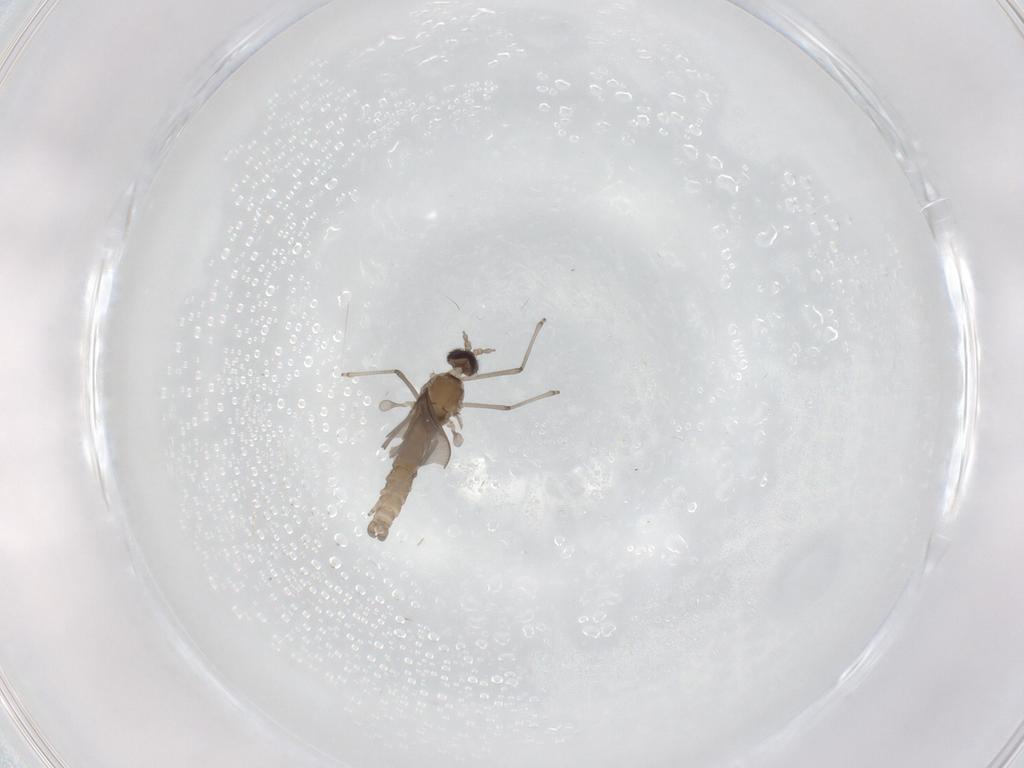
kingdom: Animalia
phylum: Arthropoda
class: Insecta
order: Diptera
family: Cecidomyiidae
